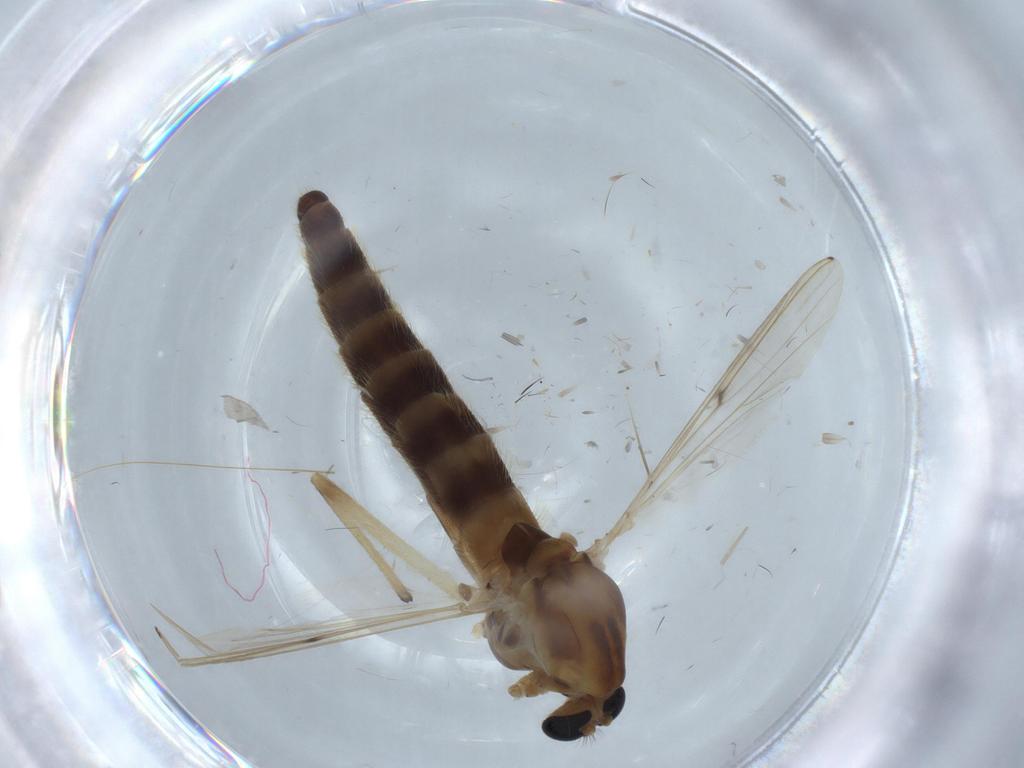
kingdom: Animalia
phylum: Arthropoda
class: Insecta
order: Diptera
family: Chironomidae
